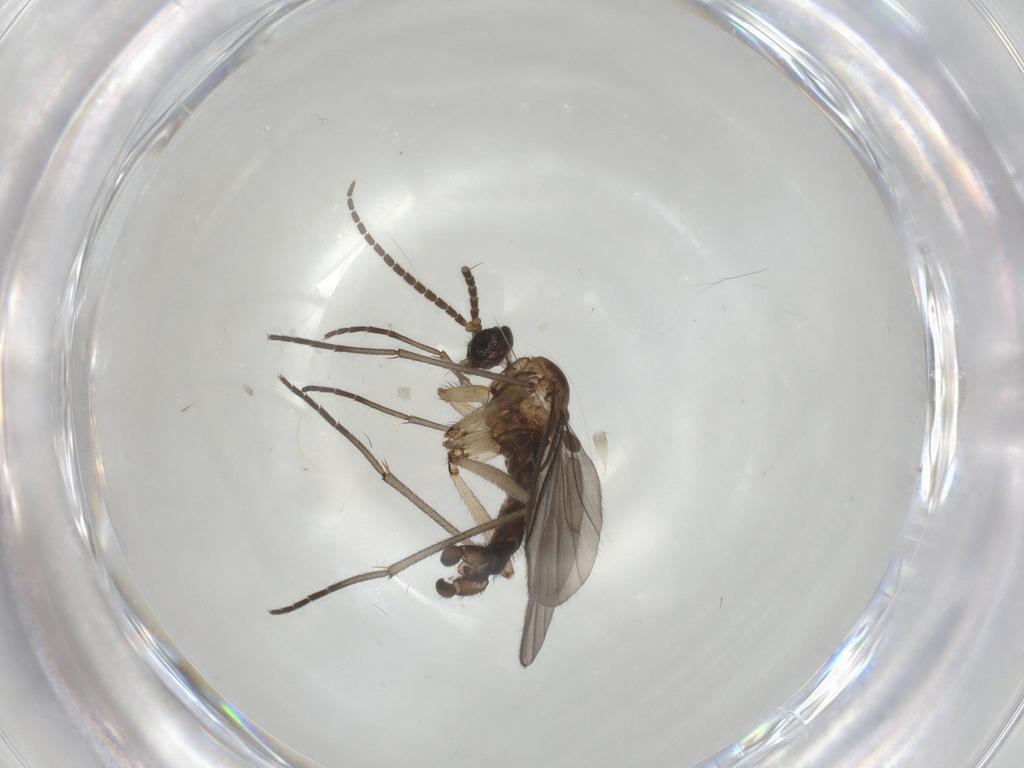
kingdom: Animalia
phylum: Arthropoda
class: Insecta
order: Diptera
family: Sciaridae
